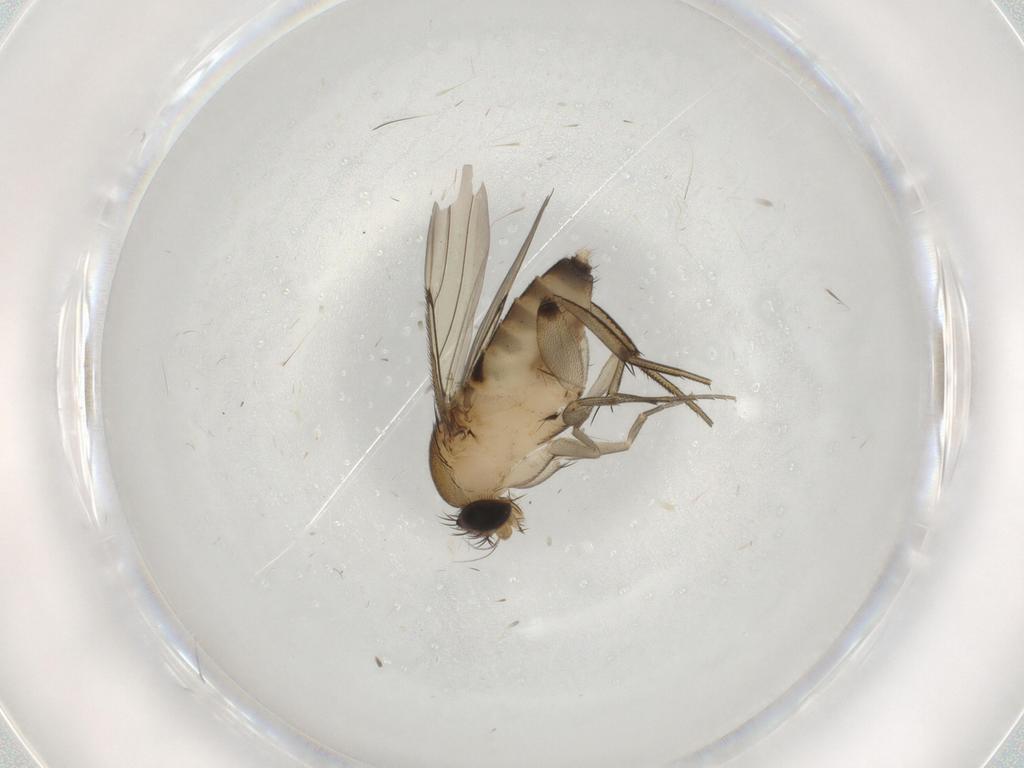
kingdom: Animalia
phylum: Arthropoda
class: Insecta
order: Diptera
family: Phoridae
